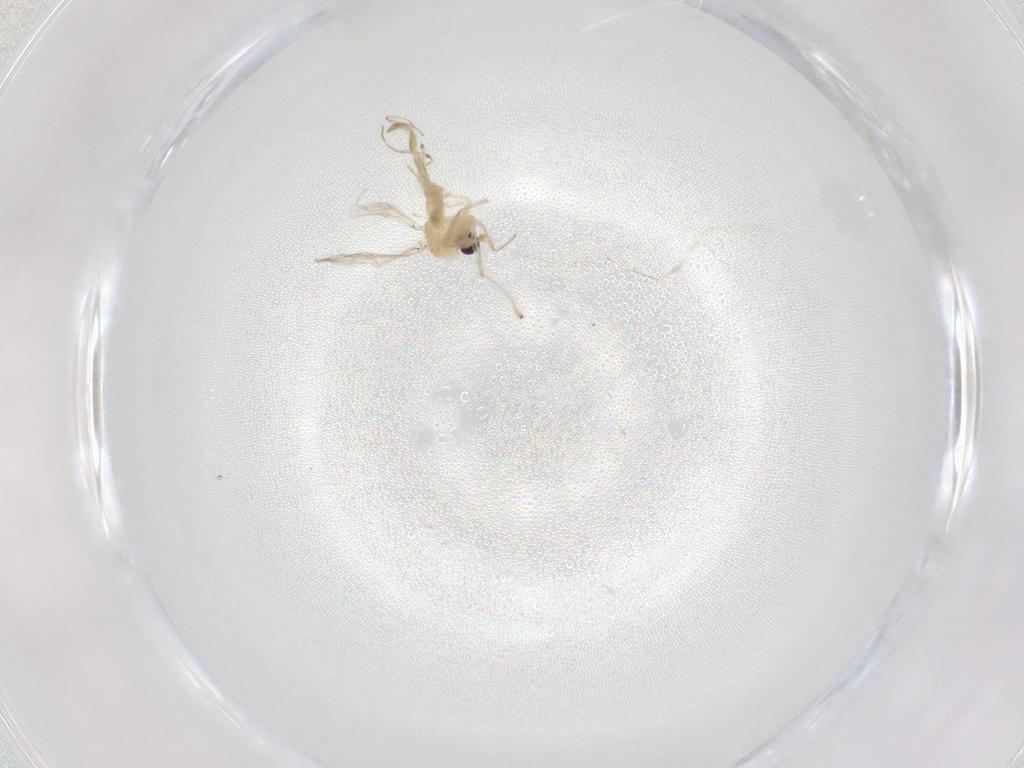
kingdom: Animalia
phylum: Arthropoda
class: Insecta
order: Diptera
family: Chironomidae
